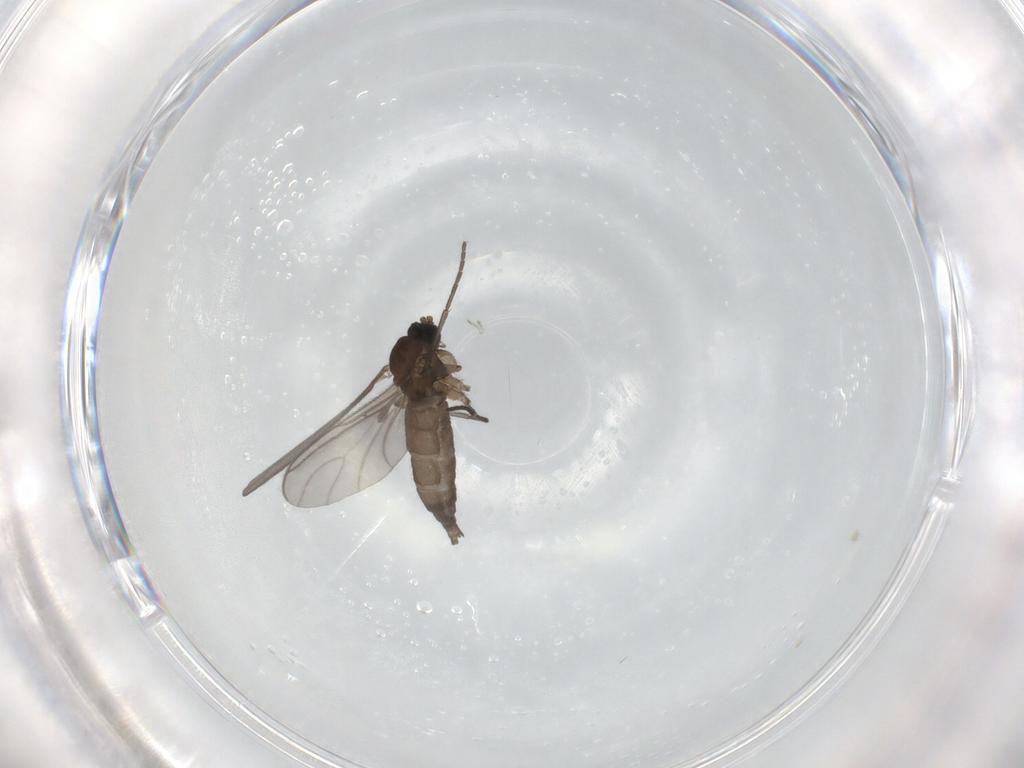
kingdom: Animalia
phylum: Arthropoda
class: Insecta
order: Diptera
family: Sciaridae
